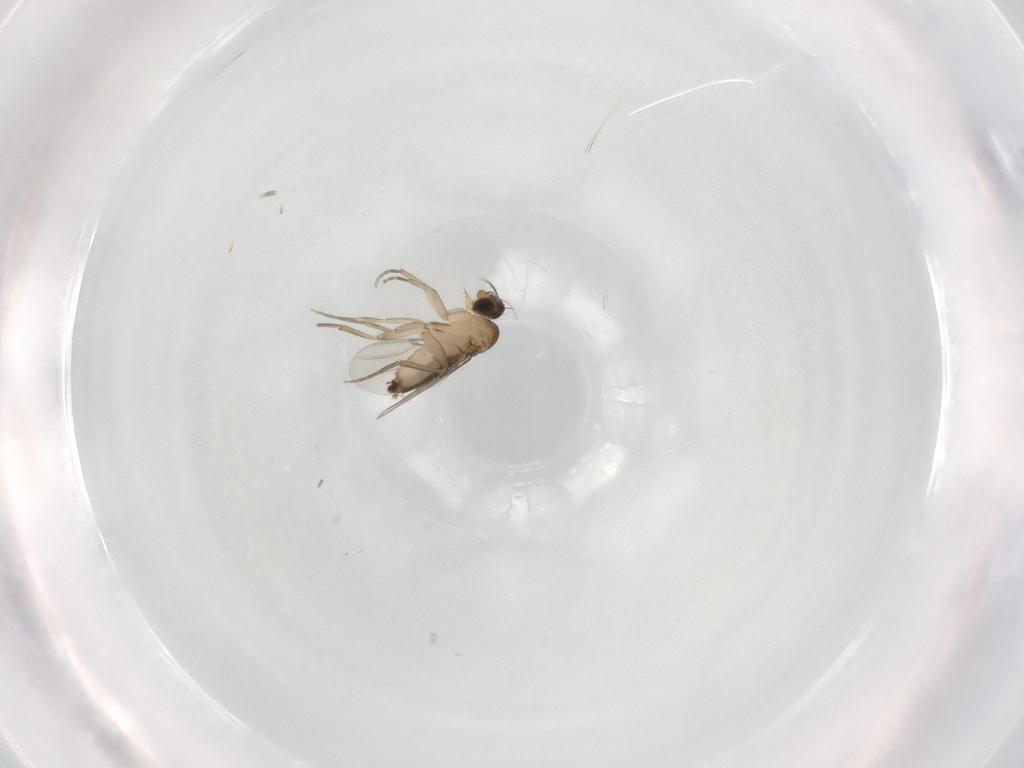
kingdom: Animalia
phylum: Arthropoda
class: Insecta
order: Diptera
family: Phoridae
